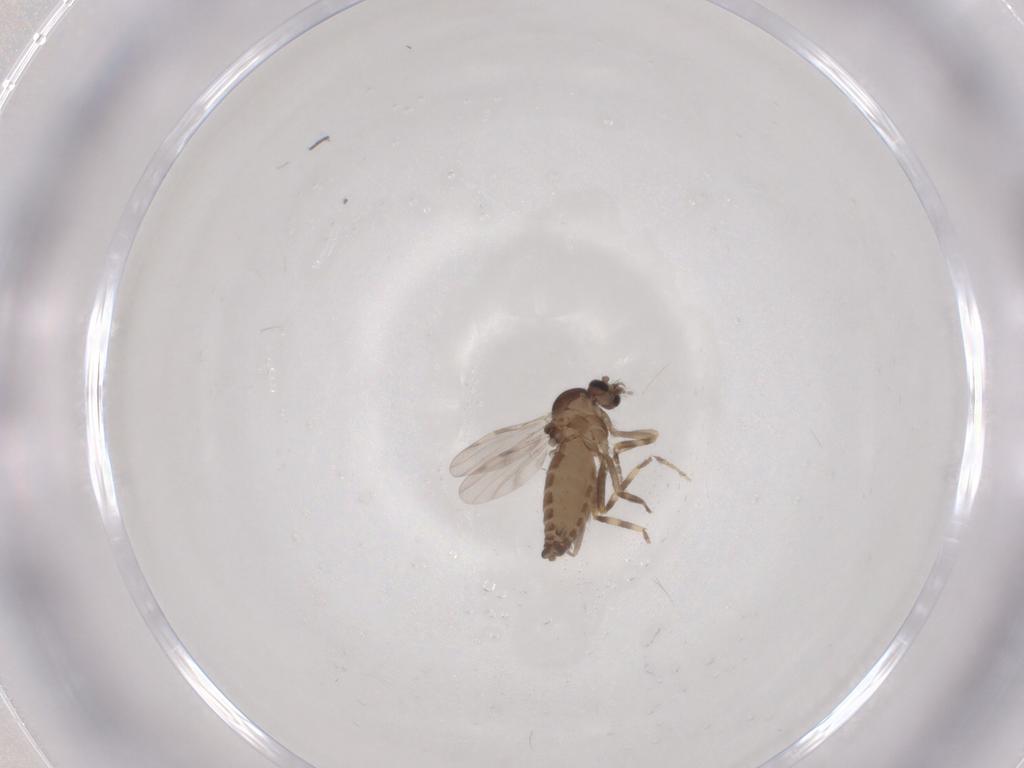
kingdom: Animalia
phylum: Arthropoda
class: Insecta
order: Diptera
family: Ceratopogonidae
